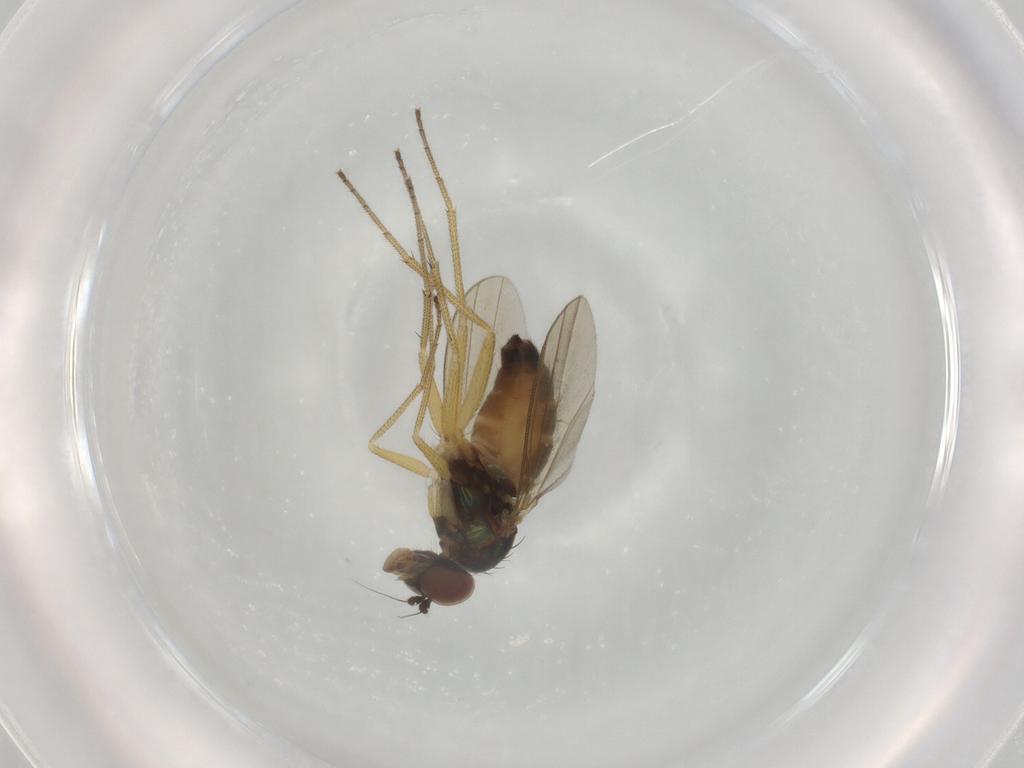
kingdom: Animalia
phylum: Arthropoda
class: Insecta
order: Diptera
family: Dolichopodidae
